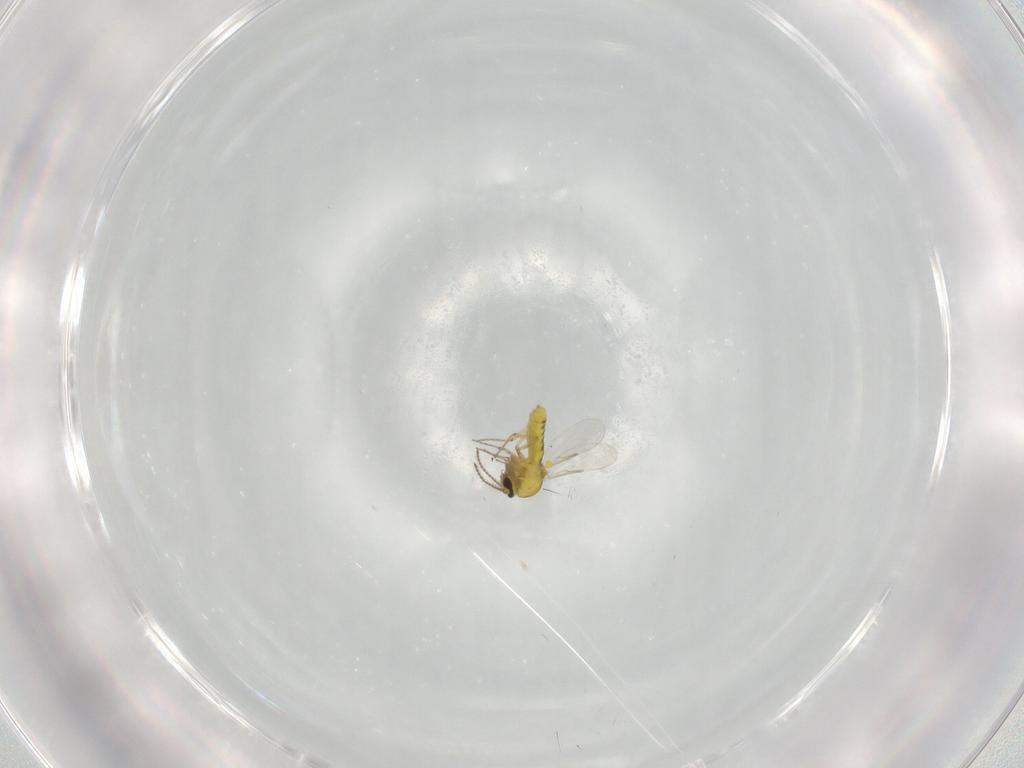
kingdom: Animalia
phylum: Arthropoda
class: Insecta
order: Diptera
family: Ceratopogonidae
